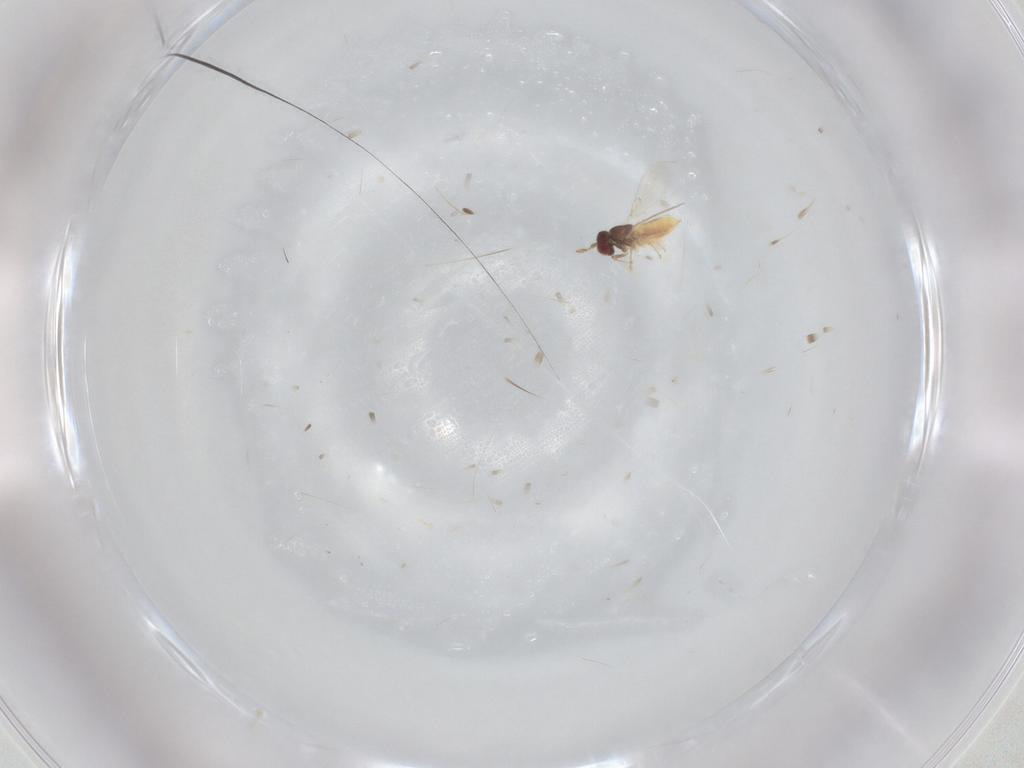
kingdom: Animalia
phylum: Arthropoda
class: Insecta
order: Hymenoptera
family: Trichogrammatidae
